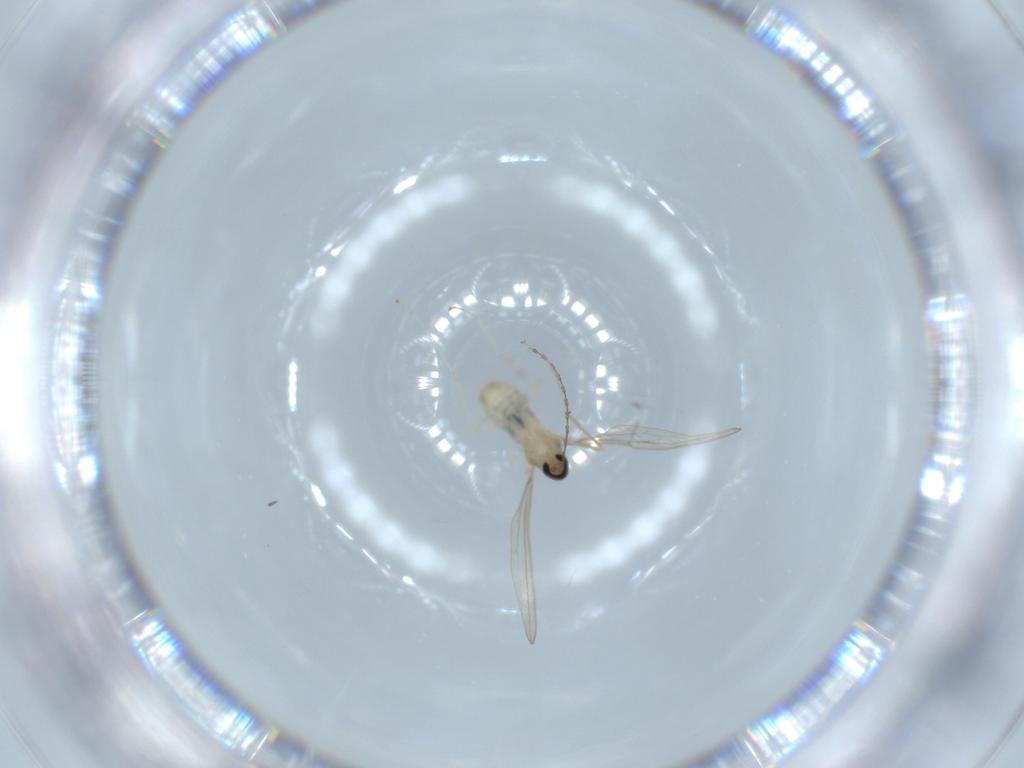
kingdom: Animalia
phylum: Arthropoda
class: Insecta
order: Diptera
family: Cecidomyiidae
